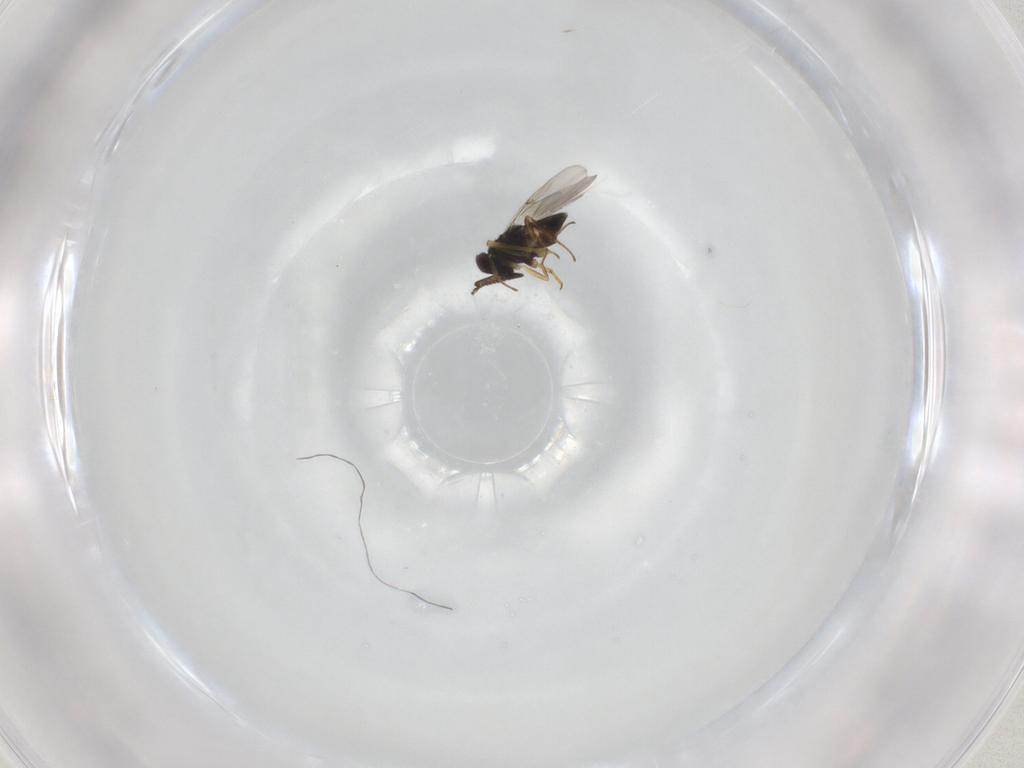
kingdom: Animalia
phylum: Arthropoda
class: Insecta
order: Hymenoptera
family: Encyrtidae
